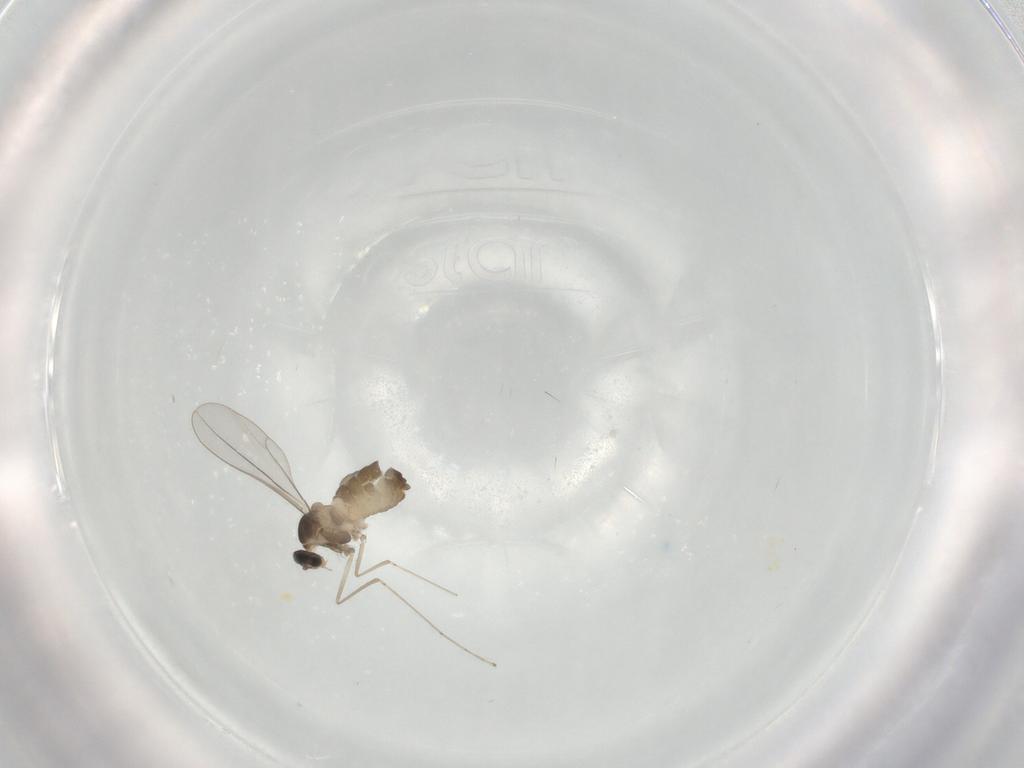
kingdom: Animalia
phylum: Arthropoda
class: Insecta
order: Diptera
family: Cecidomyiidae
